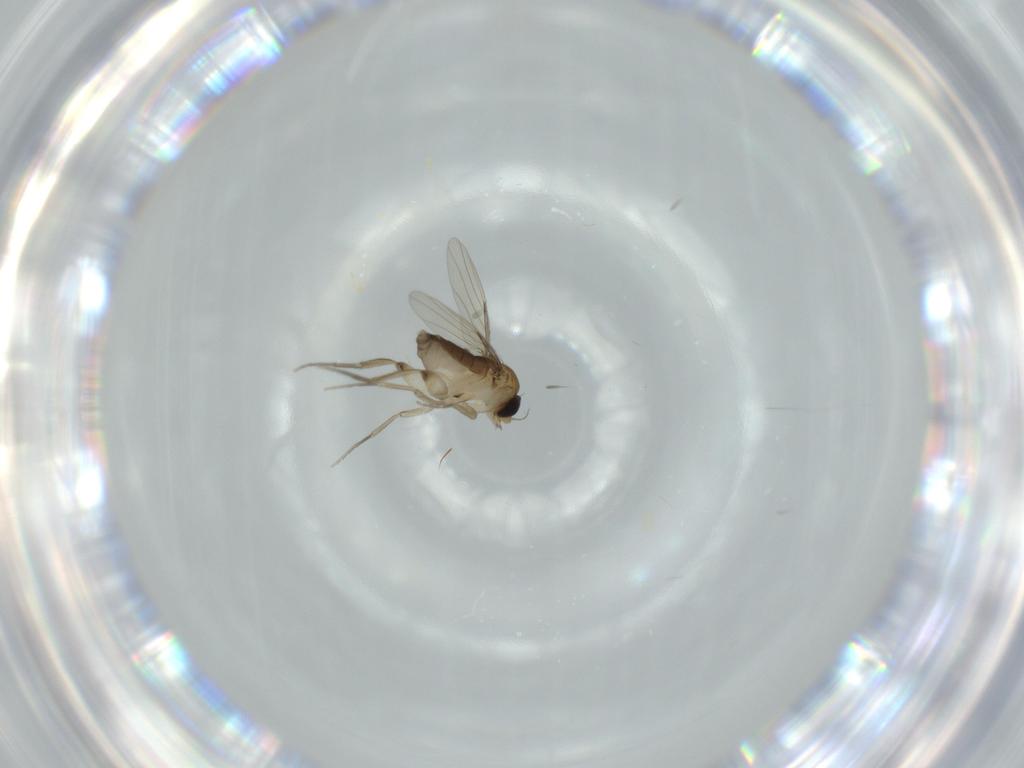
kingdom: Animalia
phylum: Arthropoda
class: Insecta
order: Diptera
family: Phoridae
